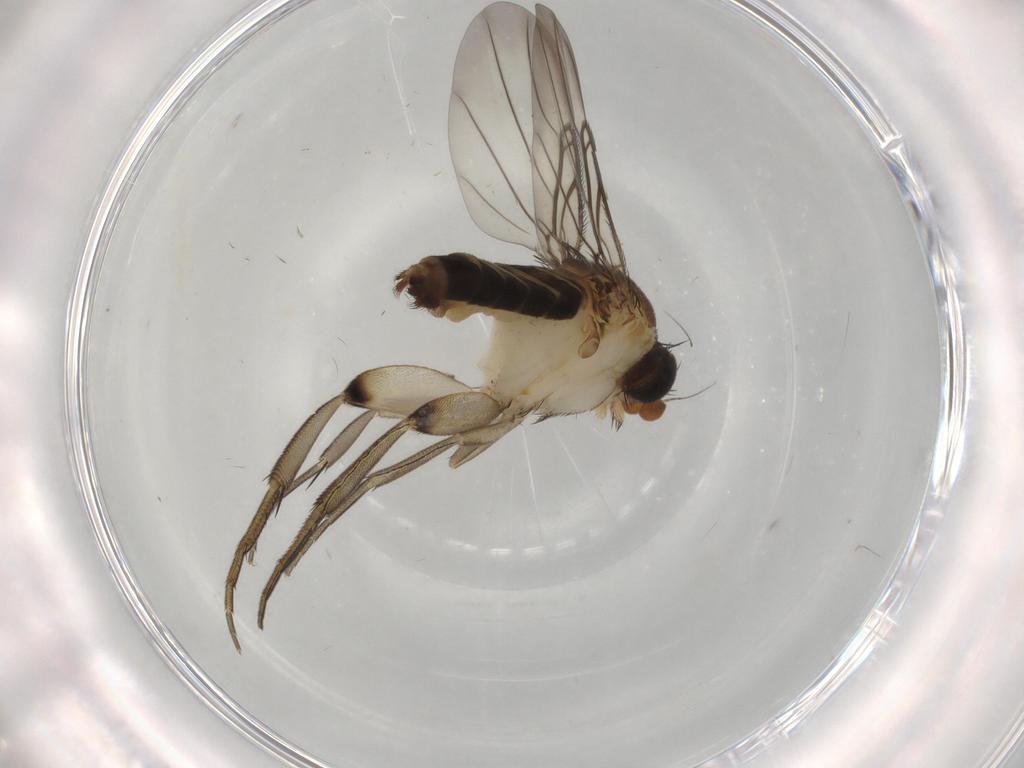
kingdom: Animalia
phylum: Arthropoda
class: Insecta
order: Diptera
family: Phoridae
